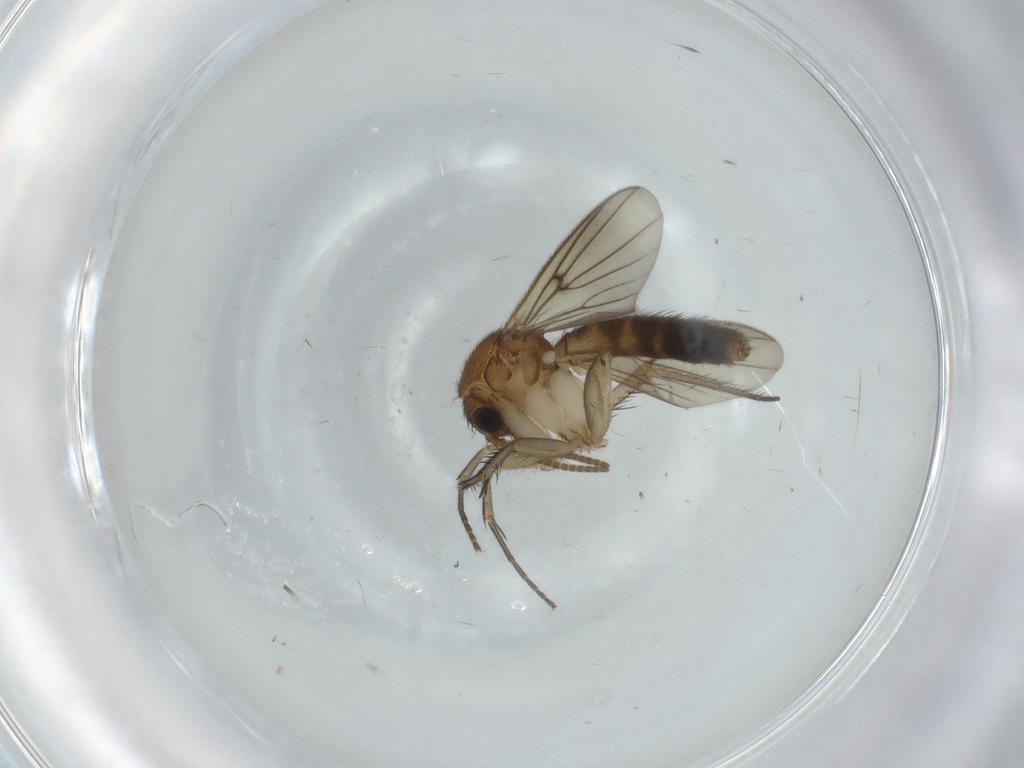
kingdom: Animalia
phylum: Arthropoda
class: Insecta
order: Diptera
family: Mycetophilidae
